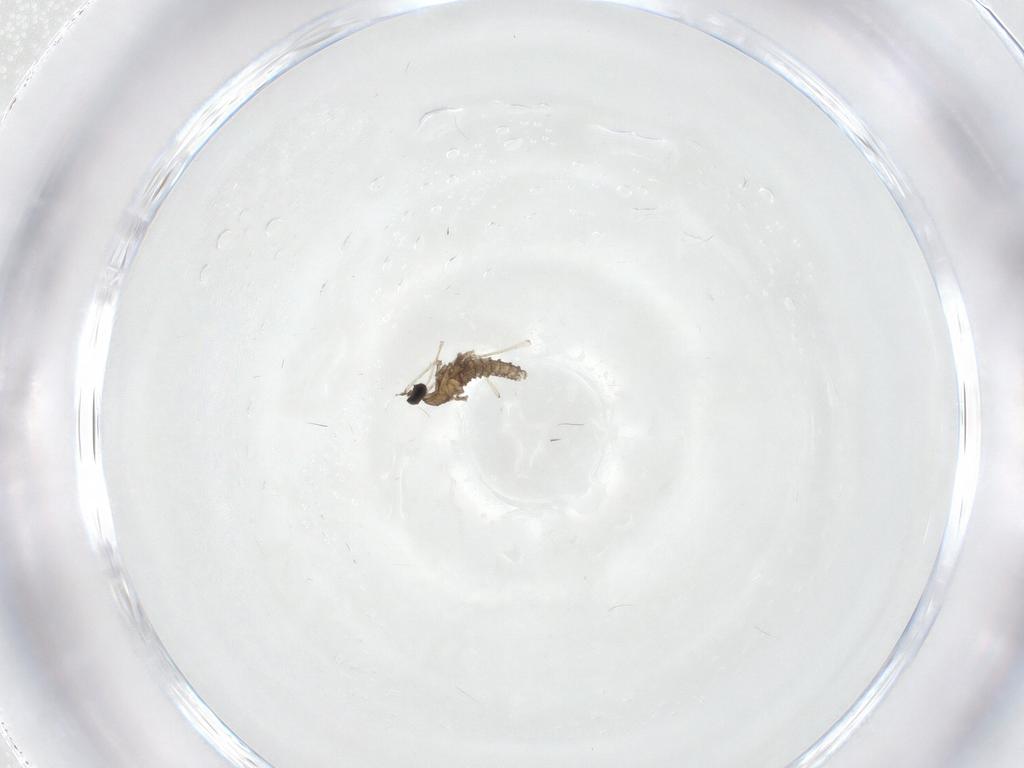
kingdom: Animalia
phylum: Arthropoda
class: Insecta
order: Diptera
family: Cecidomyiidae
